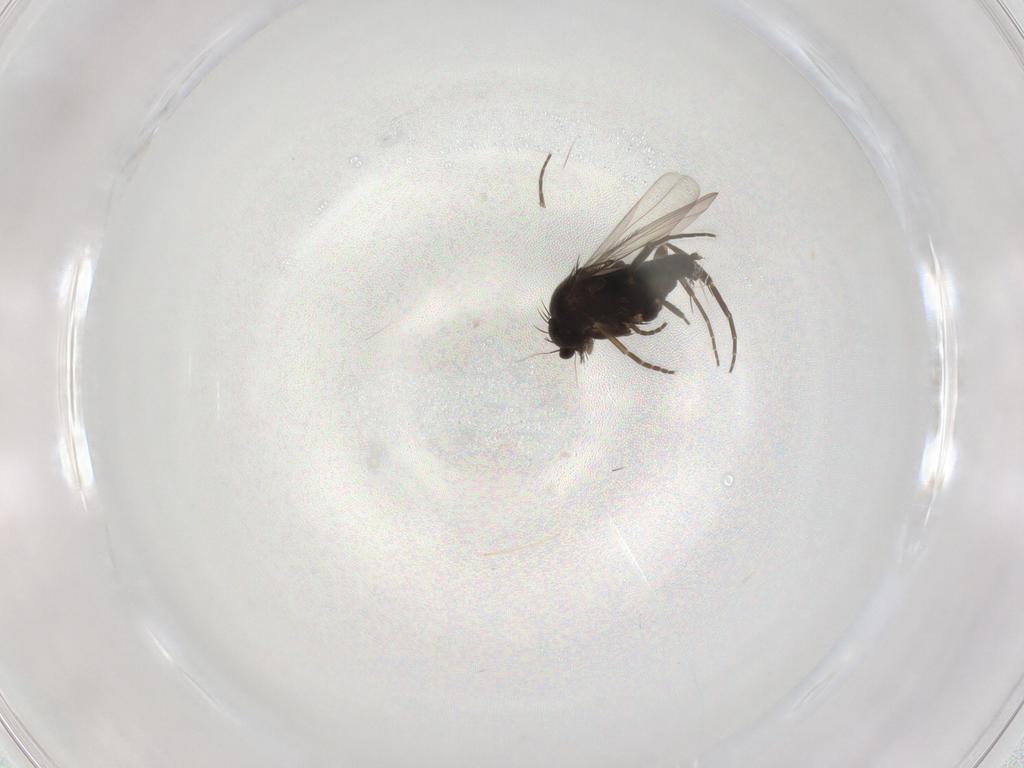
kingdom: Animalia
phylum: Arthropoda
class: Insecta
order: Diptera
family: Phoridae
